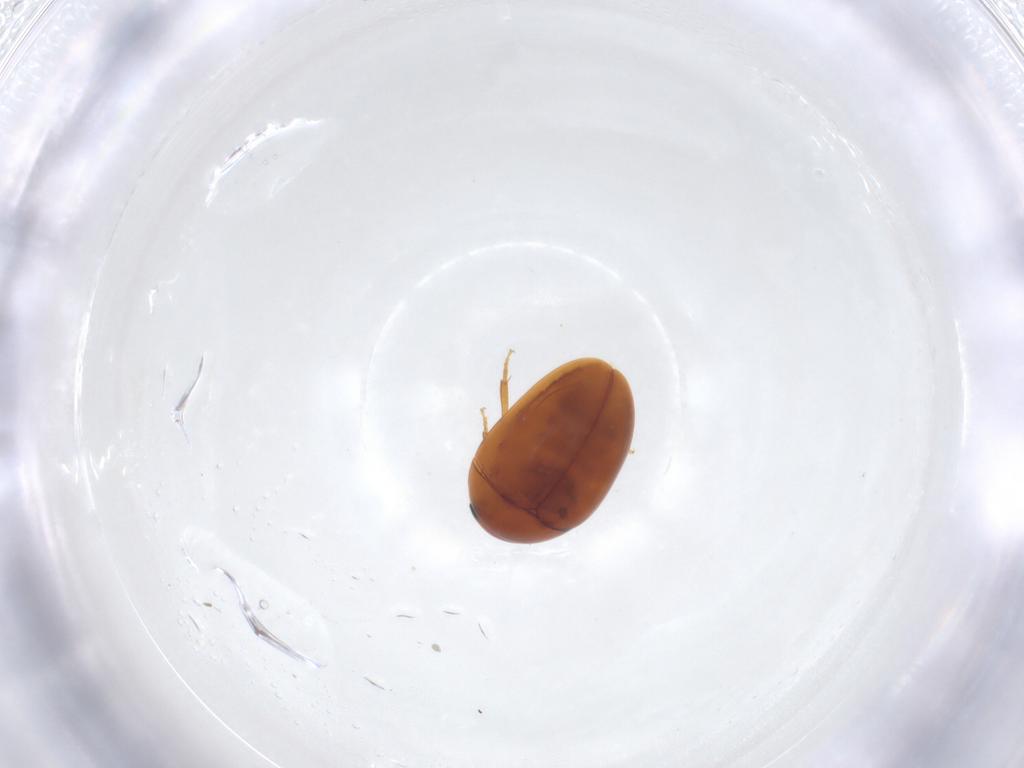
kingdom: Animalia
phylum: Arthropoda
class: Insecta
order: Coleoptera
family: Phalacridae
